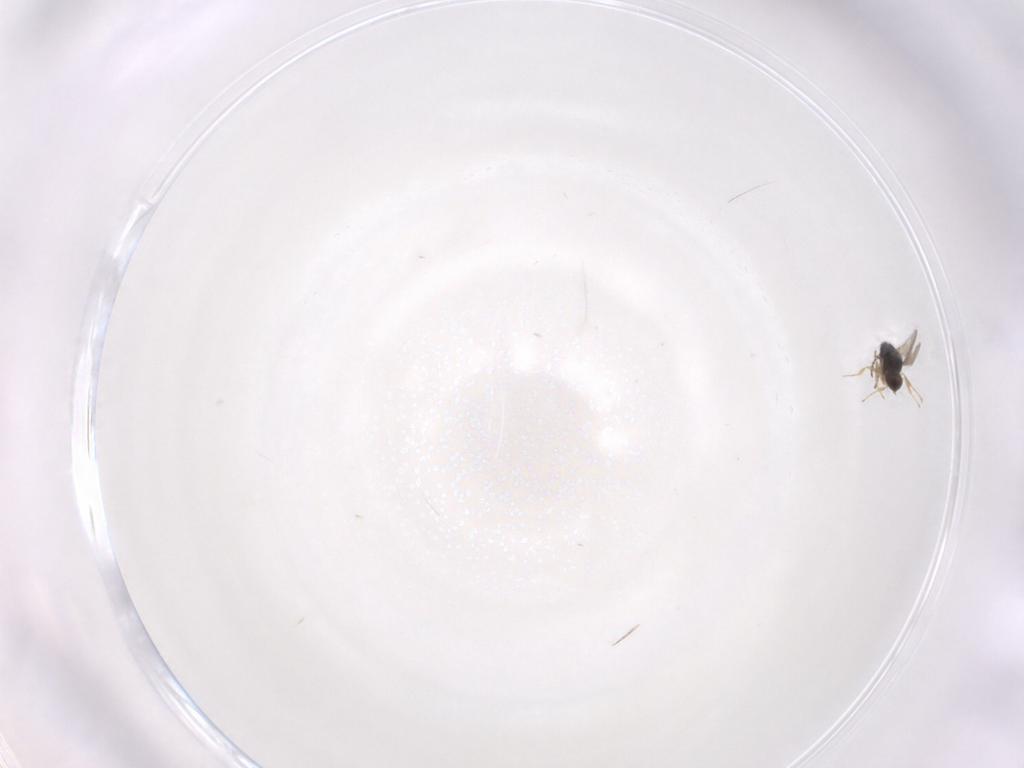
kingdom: Animalia
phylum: Arthropoda
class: Insecta
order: Hymenoptera
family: Scelionidae
